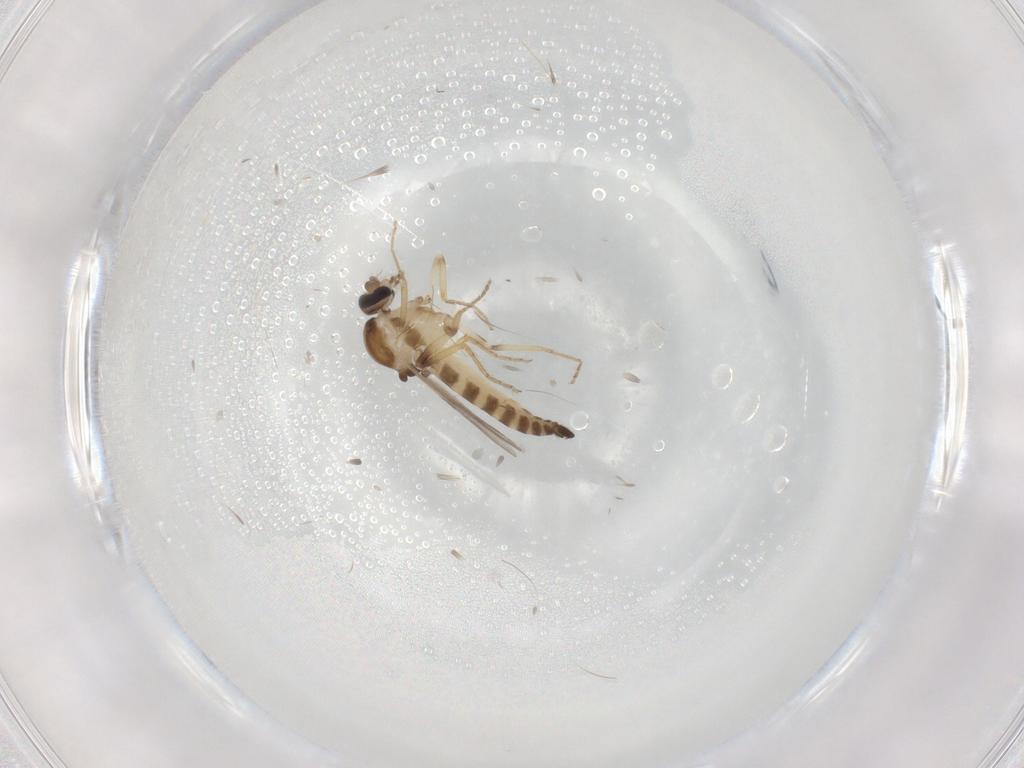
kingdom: Animalia
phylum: Arthropoda
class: Insecta
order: Diptera
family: Ceratopogonidae
